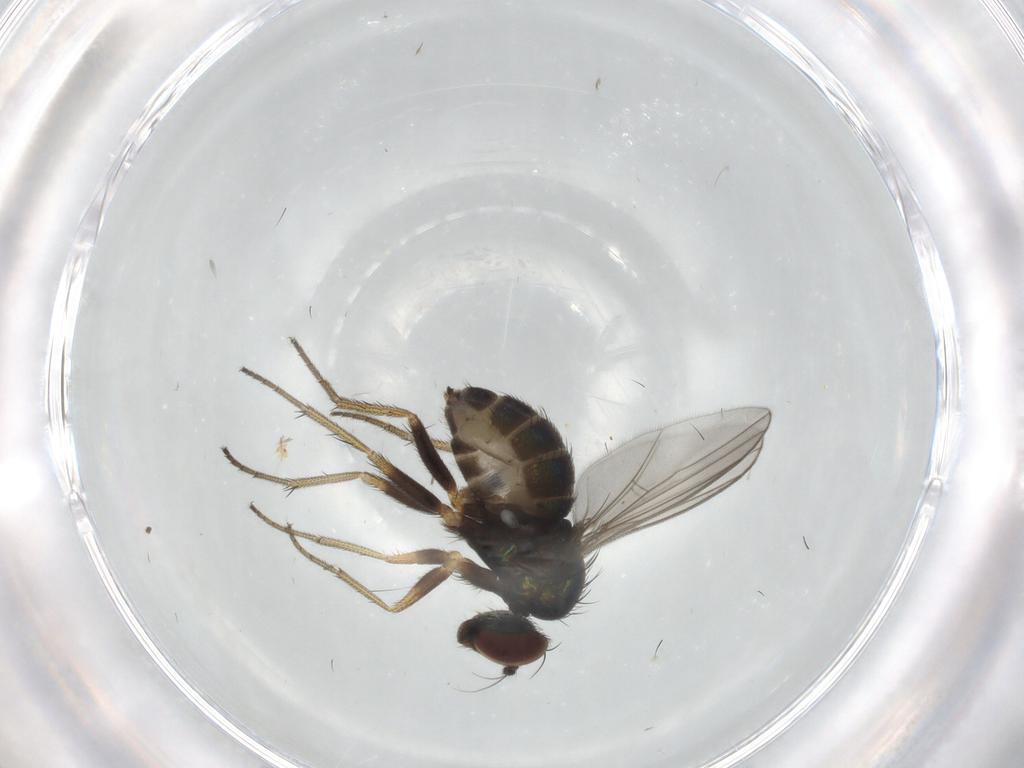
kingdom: Animalia
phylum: Arthropoda
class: Insecta
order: Diptera
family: Dolichopodidae
